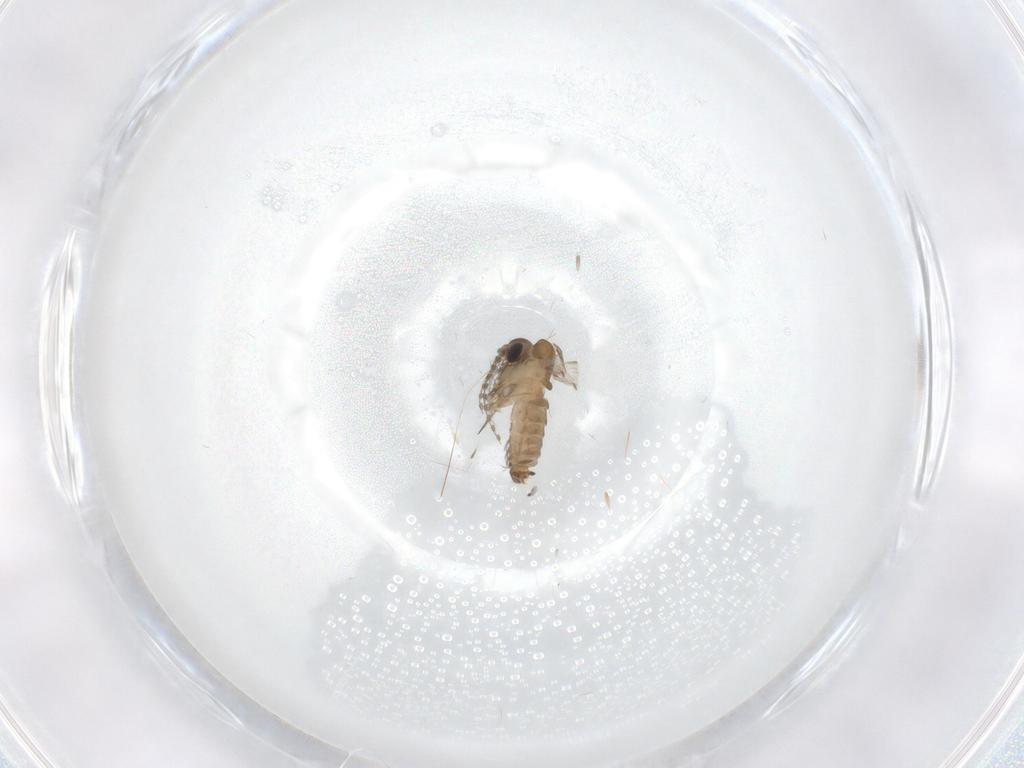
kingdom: Animalia
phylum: Arthropoda
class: Insecta
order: Diptera
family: Psychodidae
